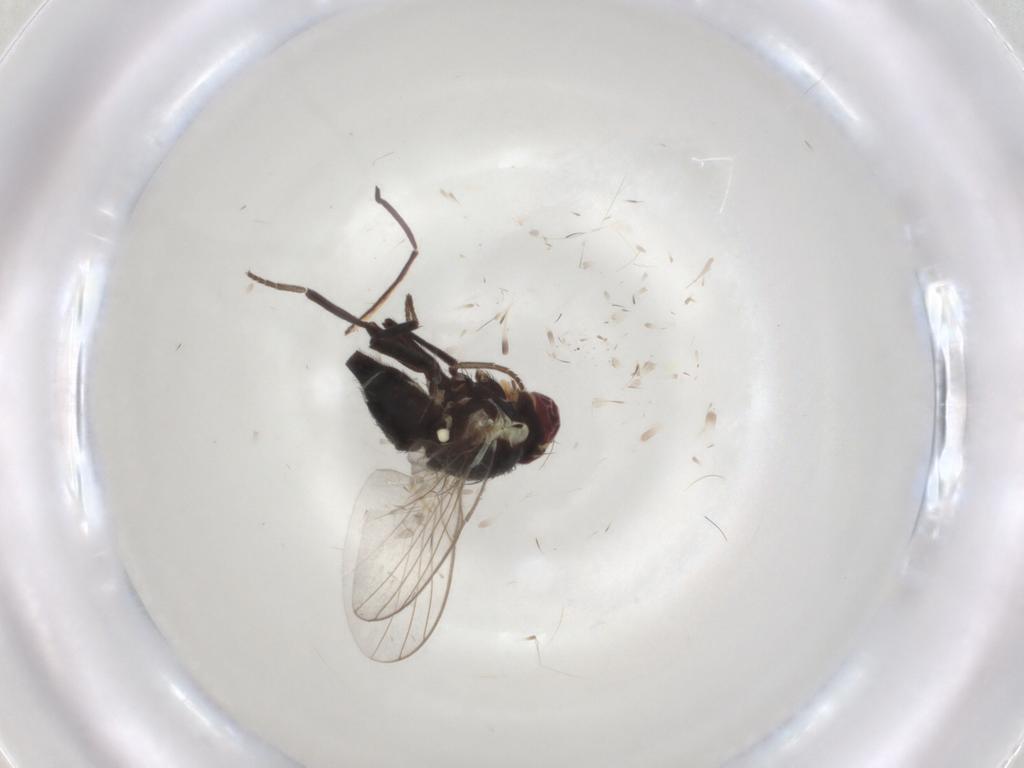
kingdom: Animalia
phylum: Arthropoda
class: Insecta
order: Diptera
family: Agromyzidae
